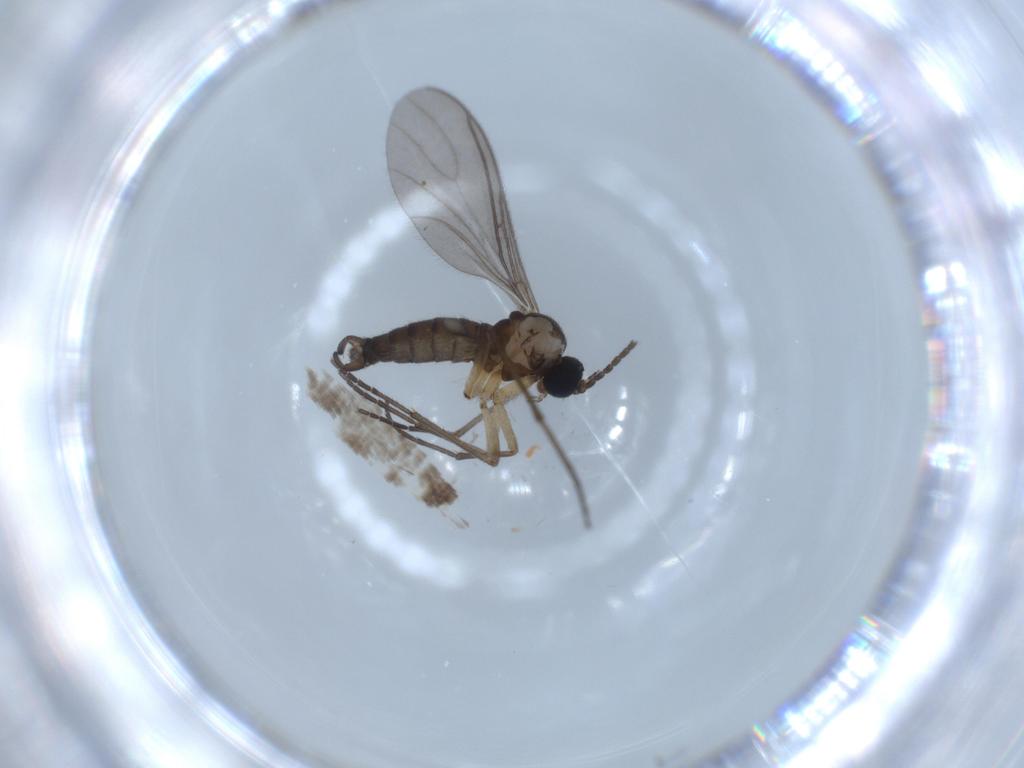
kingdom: Animalia
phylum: Arthropoda
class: Insecta
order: Diptera
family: Sciaridae
